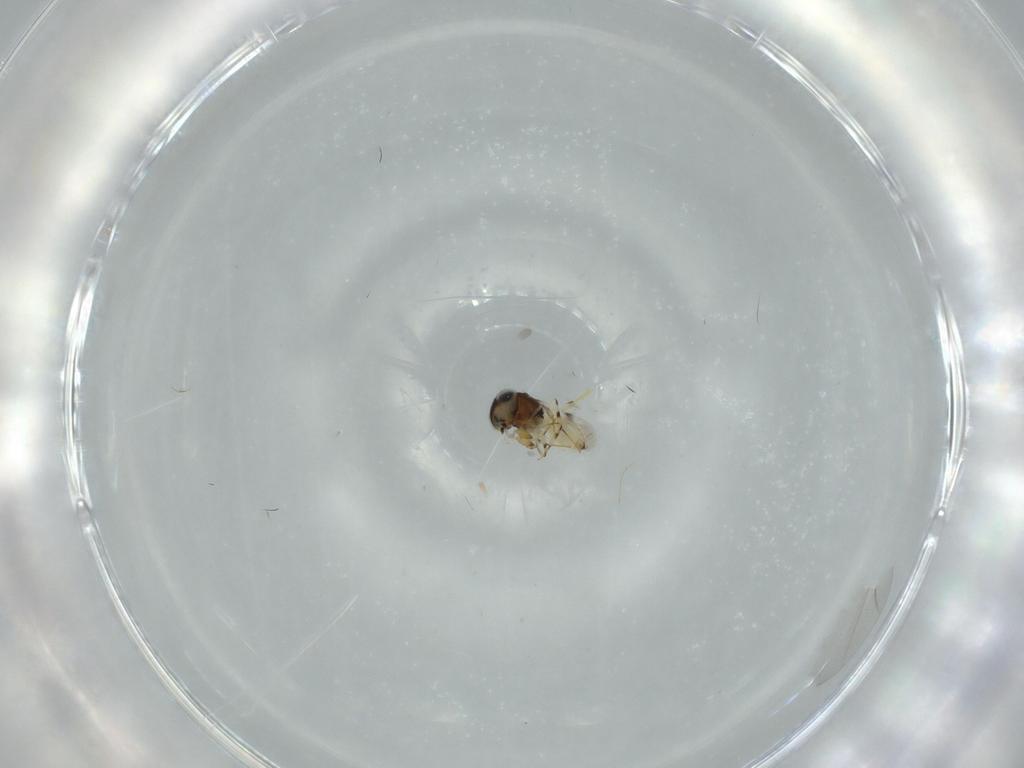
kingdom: Animalia
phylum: Arthropoda
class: Insecta
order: Hymenoptera
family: Scelionidae
